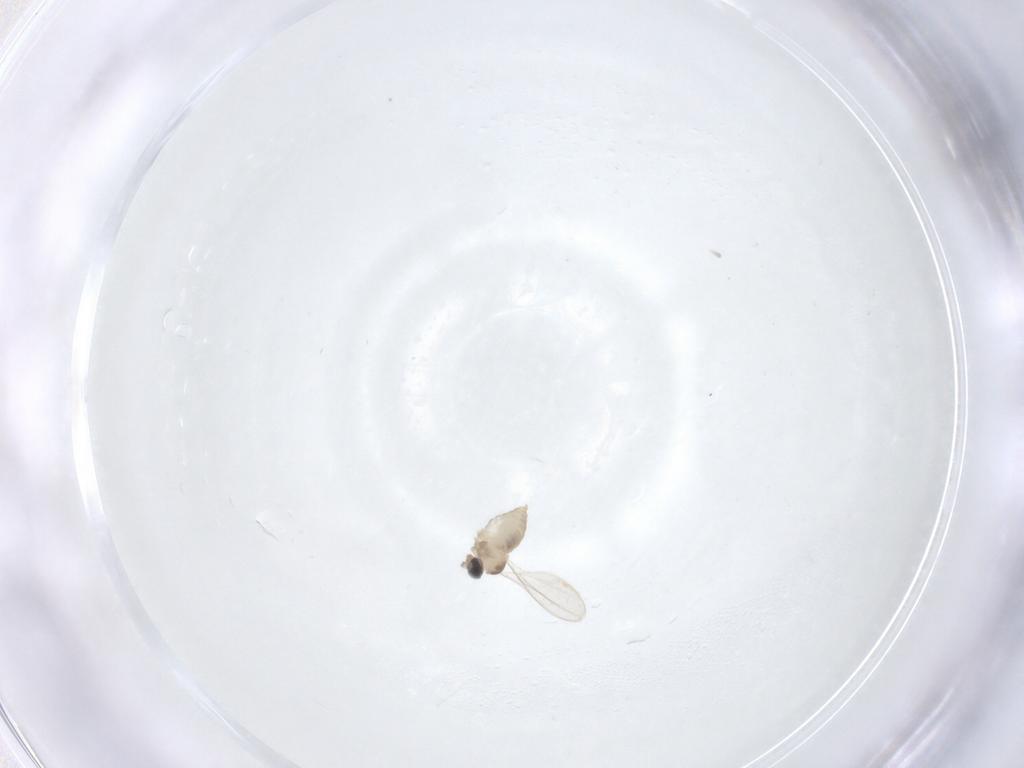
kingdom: Animalia
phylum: Arthropoda
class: Insecta
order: Diptera
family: Cecidomyiidae
